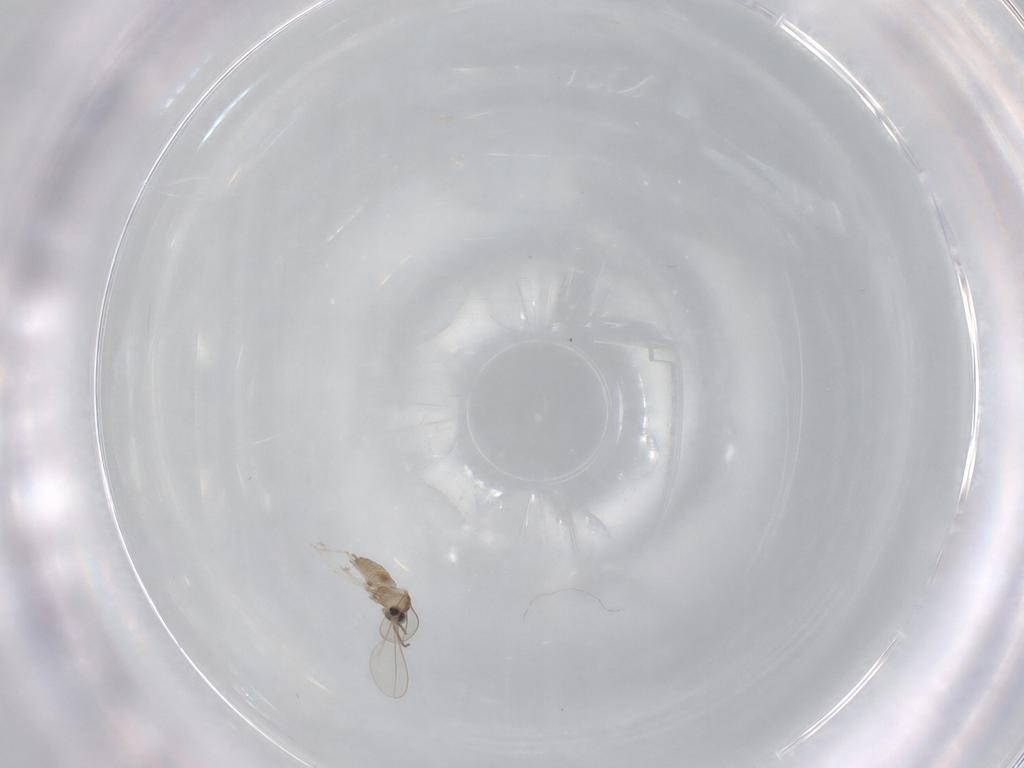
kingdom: Animalia
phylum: Arthropoda
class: Insecta
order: Diptera
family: Cecidomyiidae
